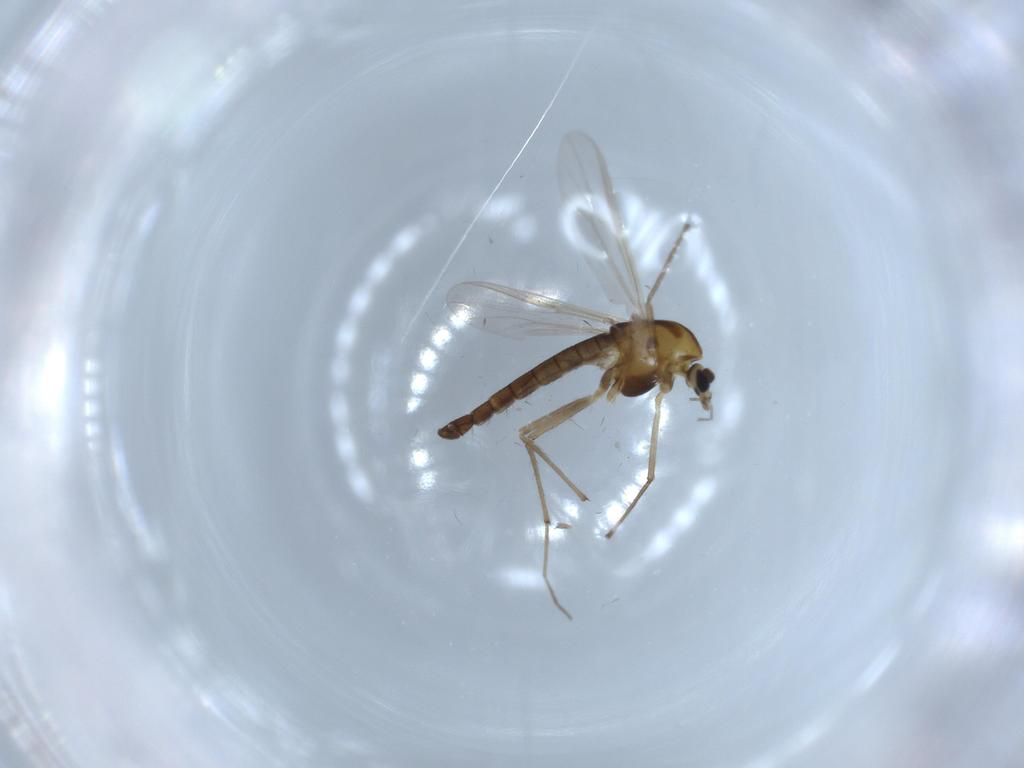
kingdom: Animalia
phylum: Arthropoda
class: Insecta
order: Diptera
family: Chironomidae
